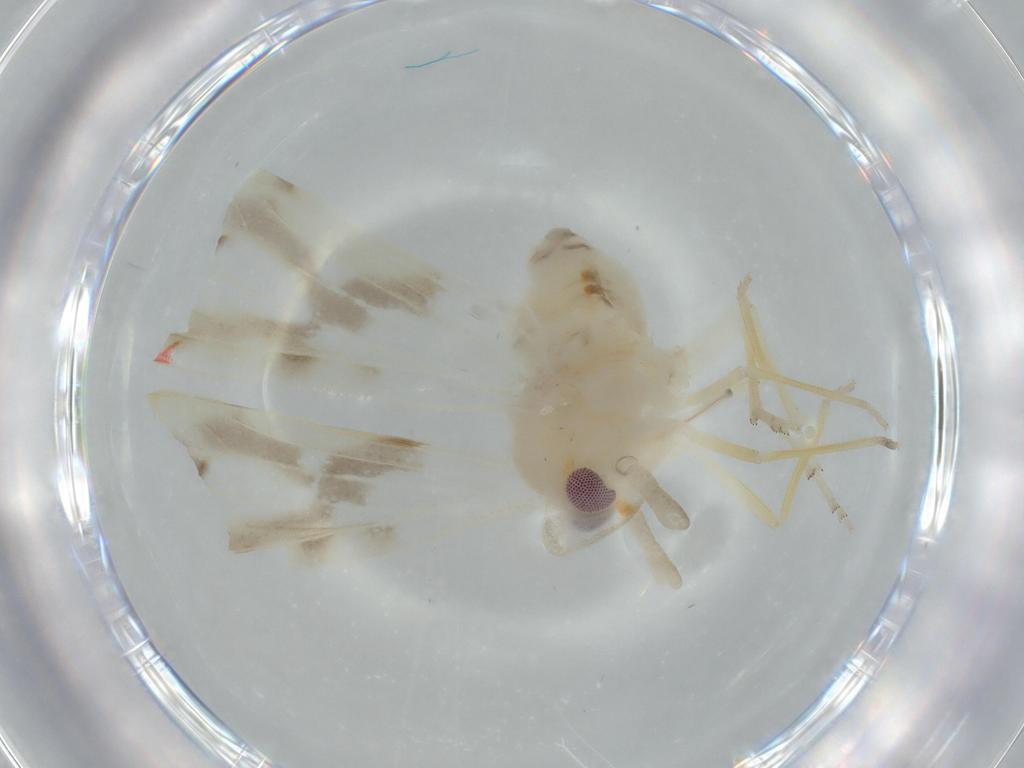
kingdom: Animalia
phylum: Arthropoda
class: Insecta
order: Hemiptera
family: Derbidae
